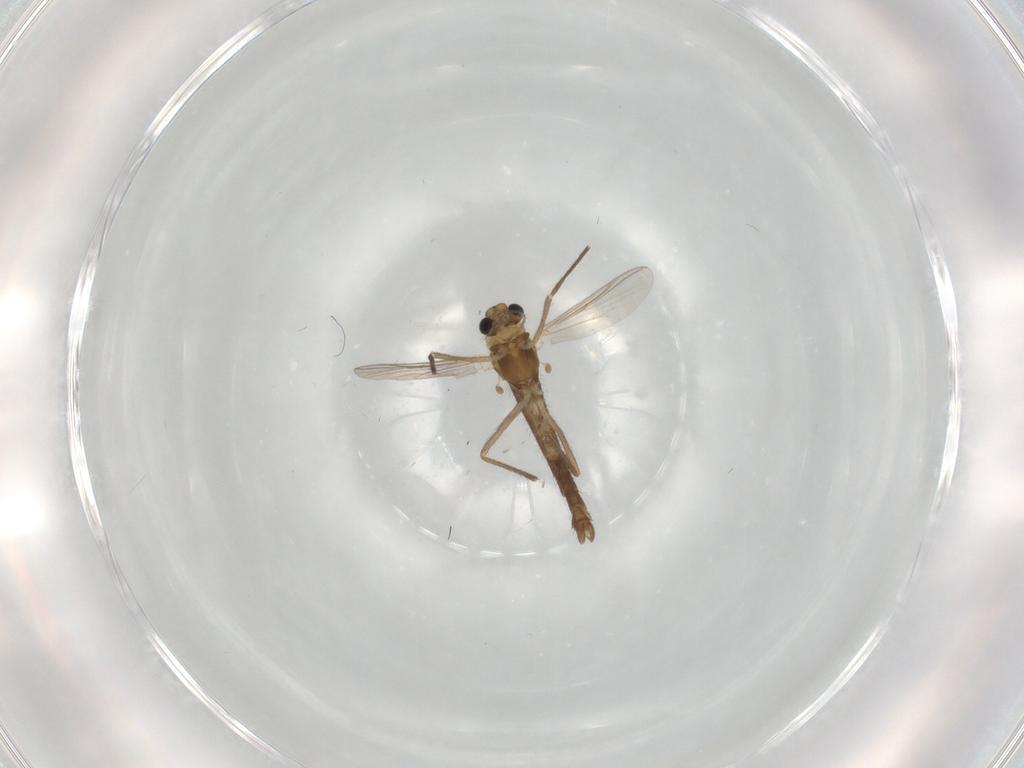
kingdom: Animalia
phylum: Arthropoda
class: Insecta
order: Diptera
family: Chironomidae
